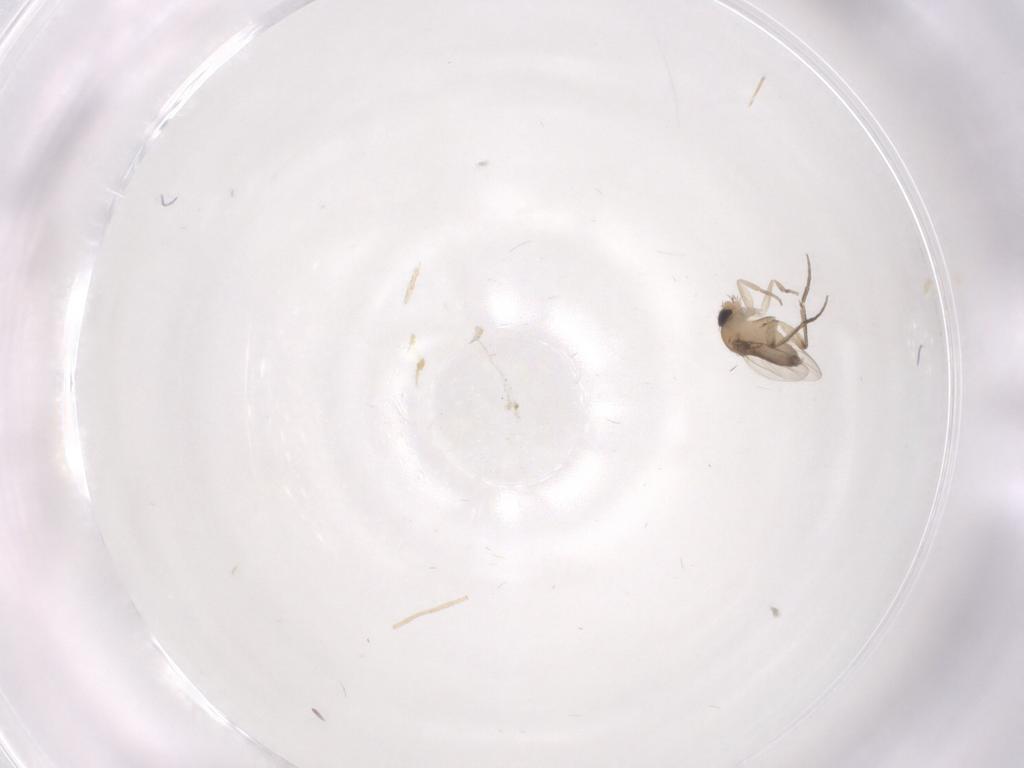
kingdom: Animalia
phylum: Arthropoda
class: Insecta
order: Diptera
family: Phoridae
